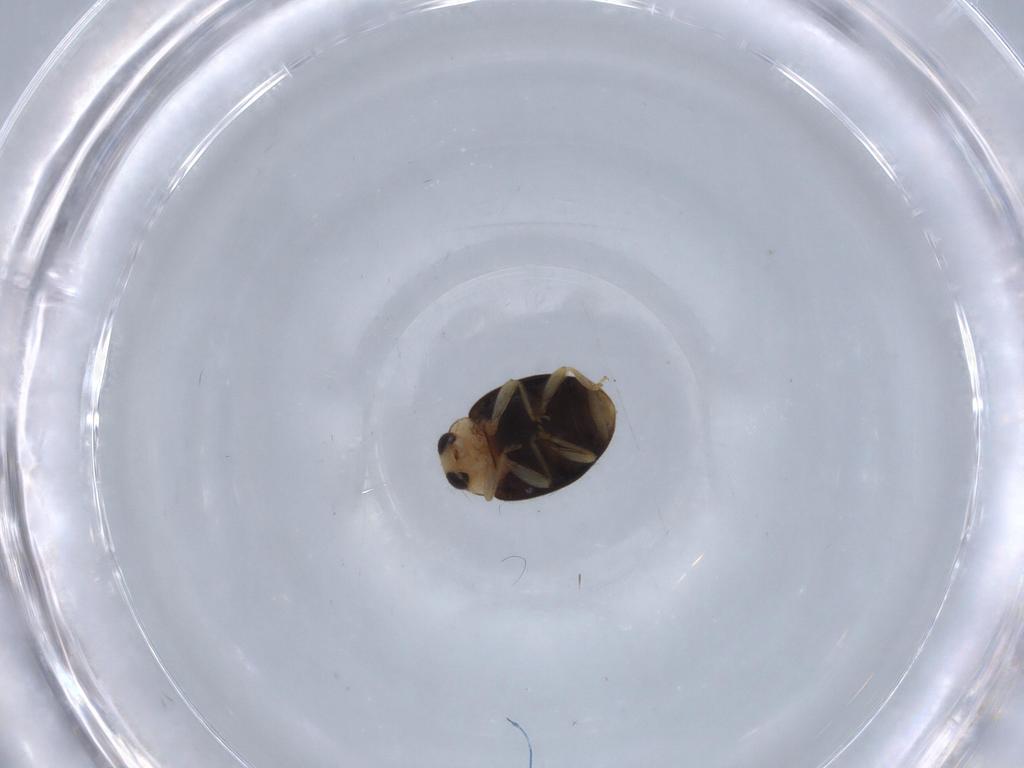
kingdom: Animalia
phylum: Arthropoda
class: Insecta
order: Coleoptera
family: Coccinellidae
